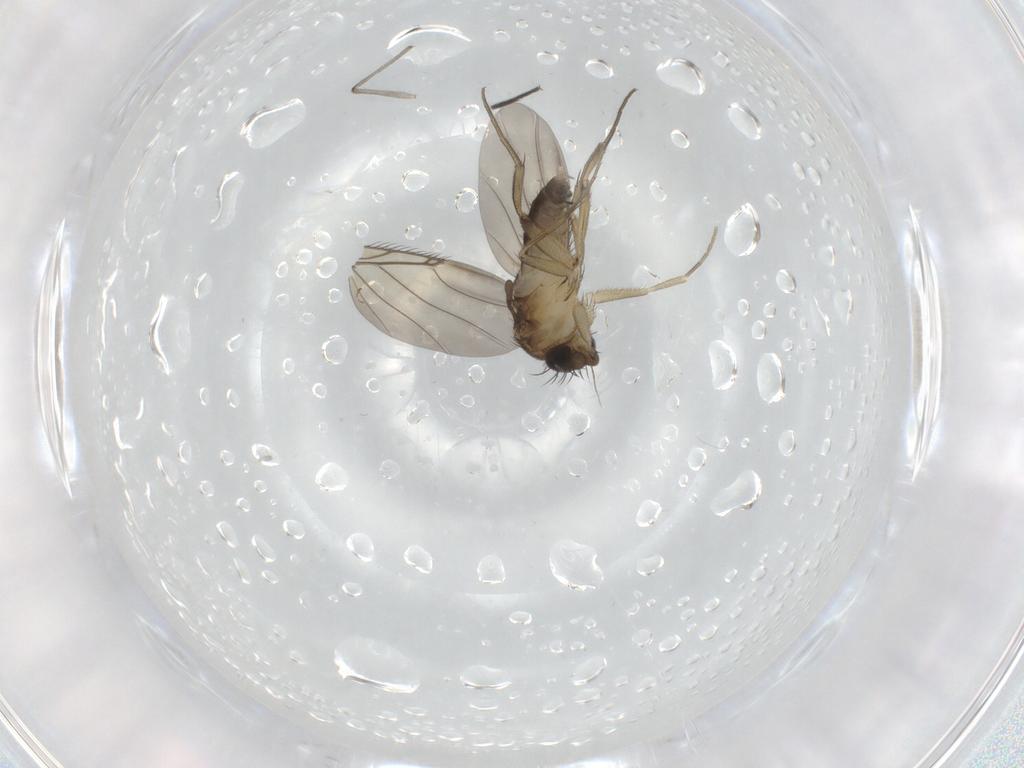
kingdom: Animalia
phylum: Arthropoda
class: Insecta
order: Diptera
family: Phoridae
